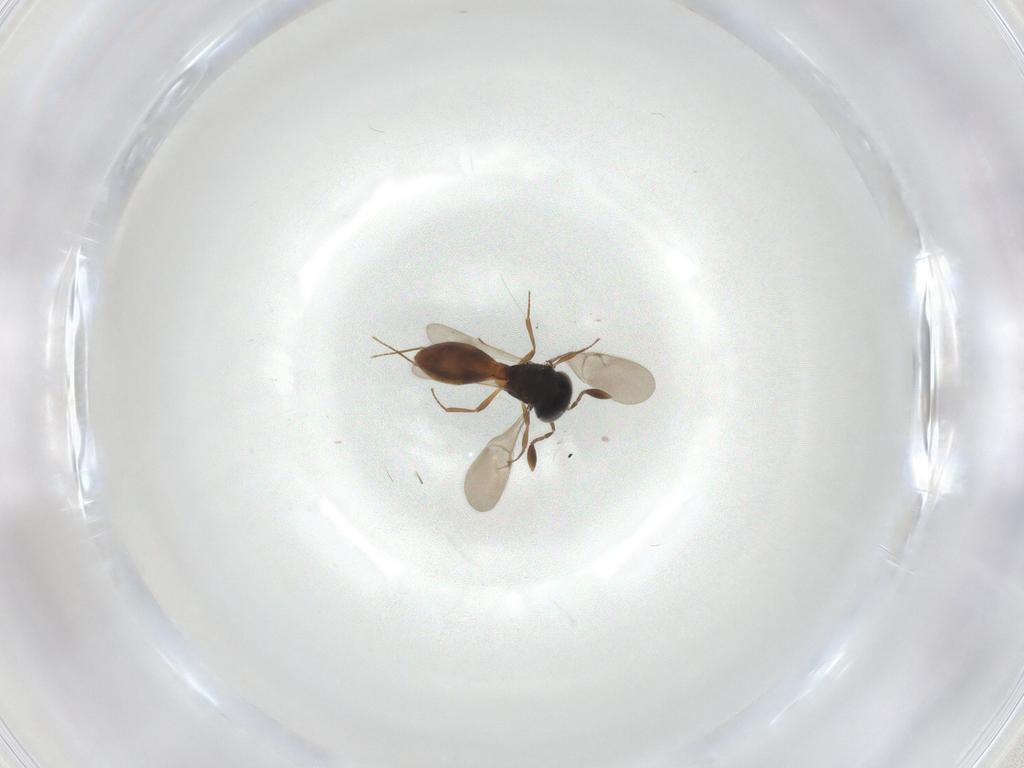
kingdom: Animalia
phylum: Arthropoda
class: Insecta
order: Hymenoptera
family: Scelionidae
